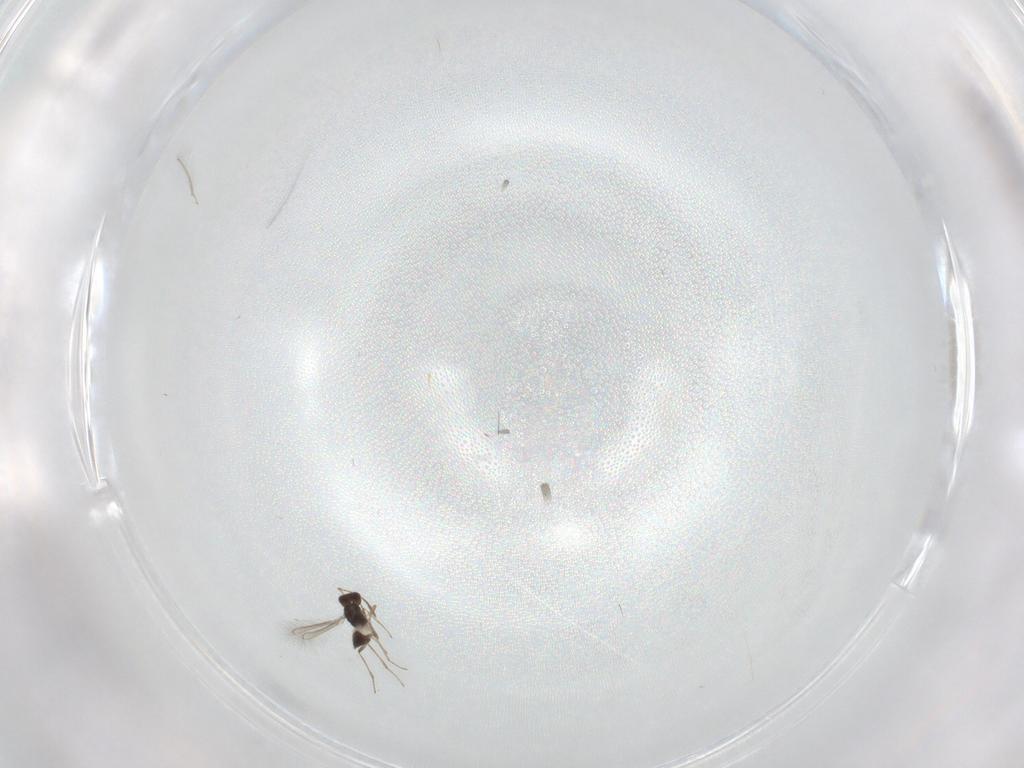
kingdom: Animalia
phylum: Arthropoda
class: Insecta
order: Hymenoptera
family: Mymaridae
